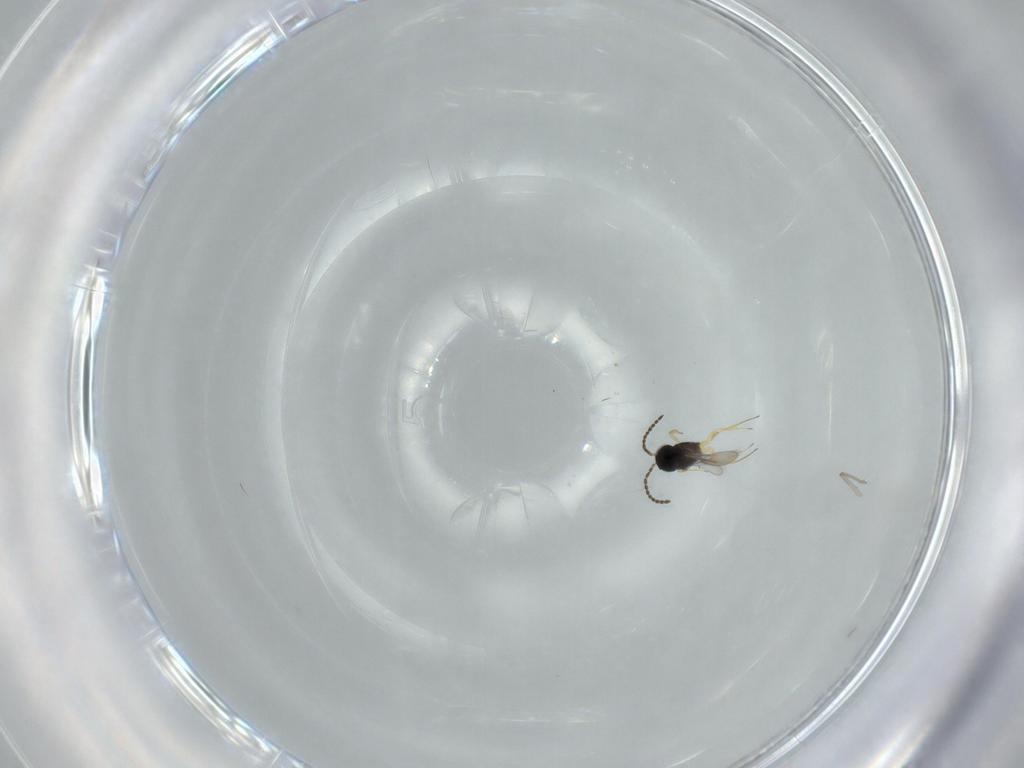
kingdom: Animalia
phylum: Arthropoda
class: Insecta
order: Hymenoptera
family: Scelionidae
